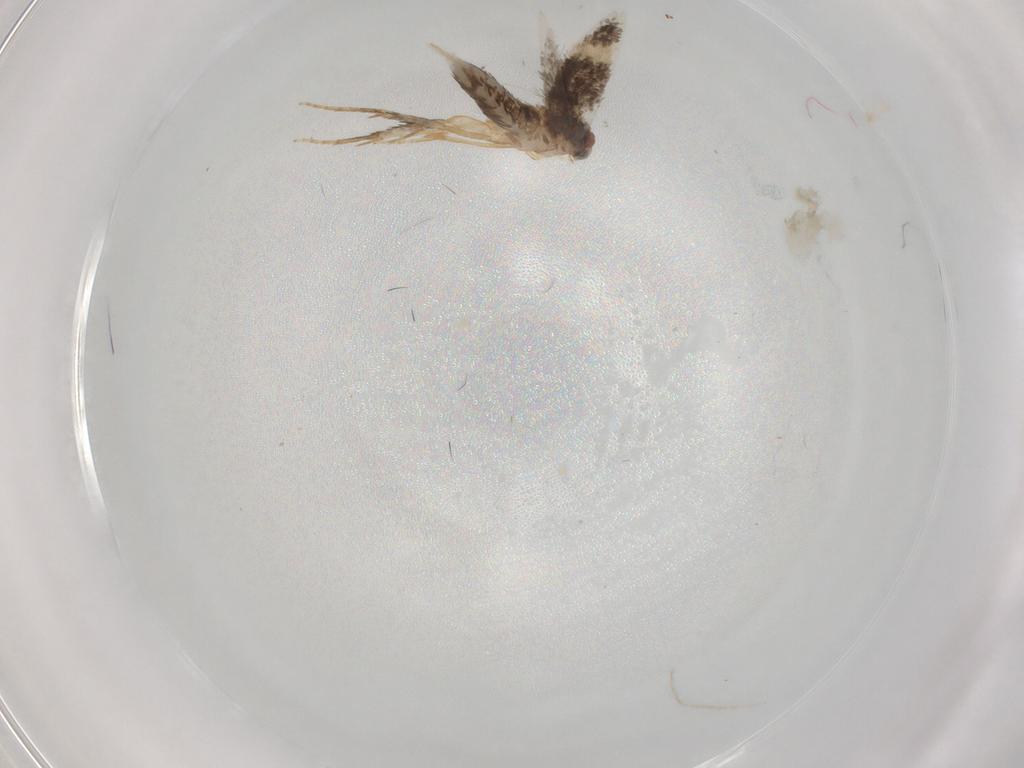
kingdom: Animalia
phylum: Arthropoda
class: Insecta
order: Lepidoptera
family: Nepticulidae
